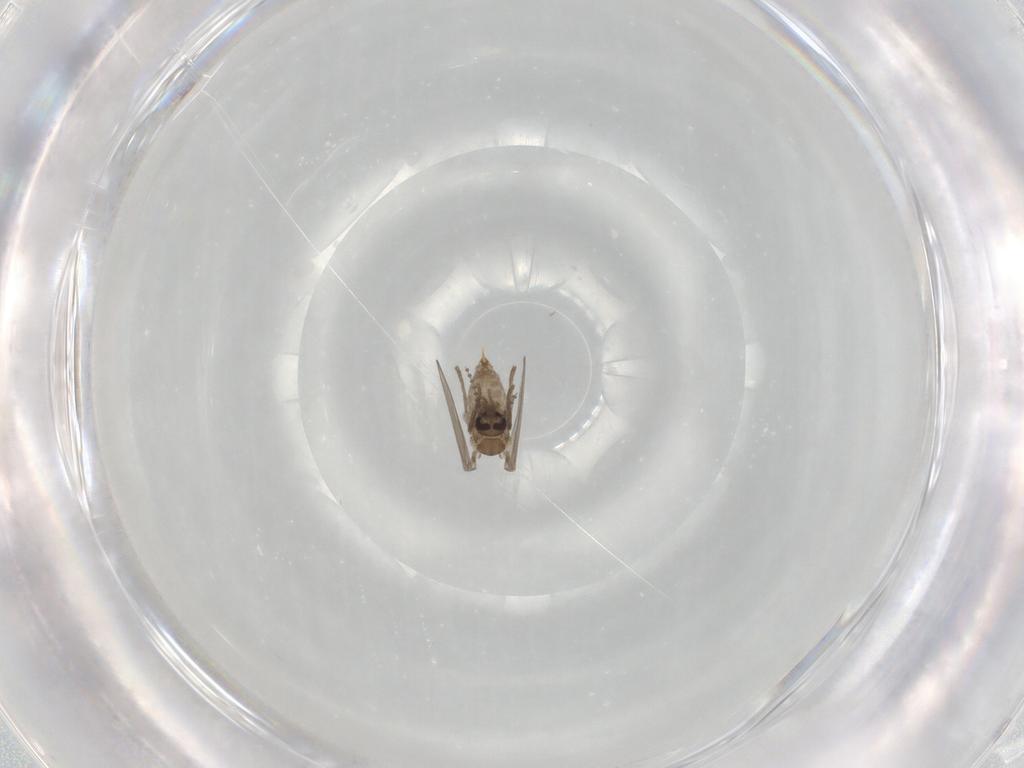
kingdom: Animalia
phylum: Arthropoda
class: Insecta
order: Diptera
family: Psychodidae
